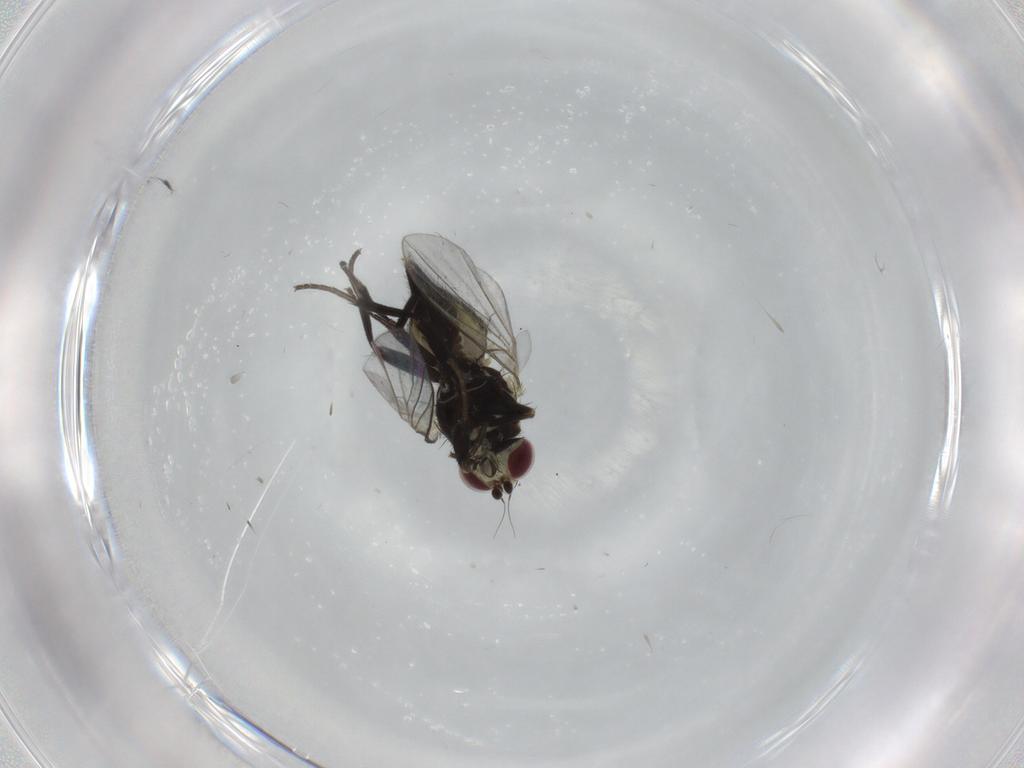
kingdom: Animalia
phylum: Arthropoda
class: Insecta
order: Diptera
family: Agromyzidae
